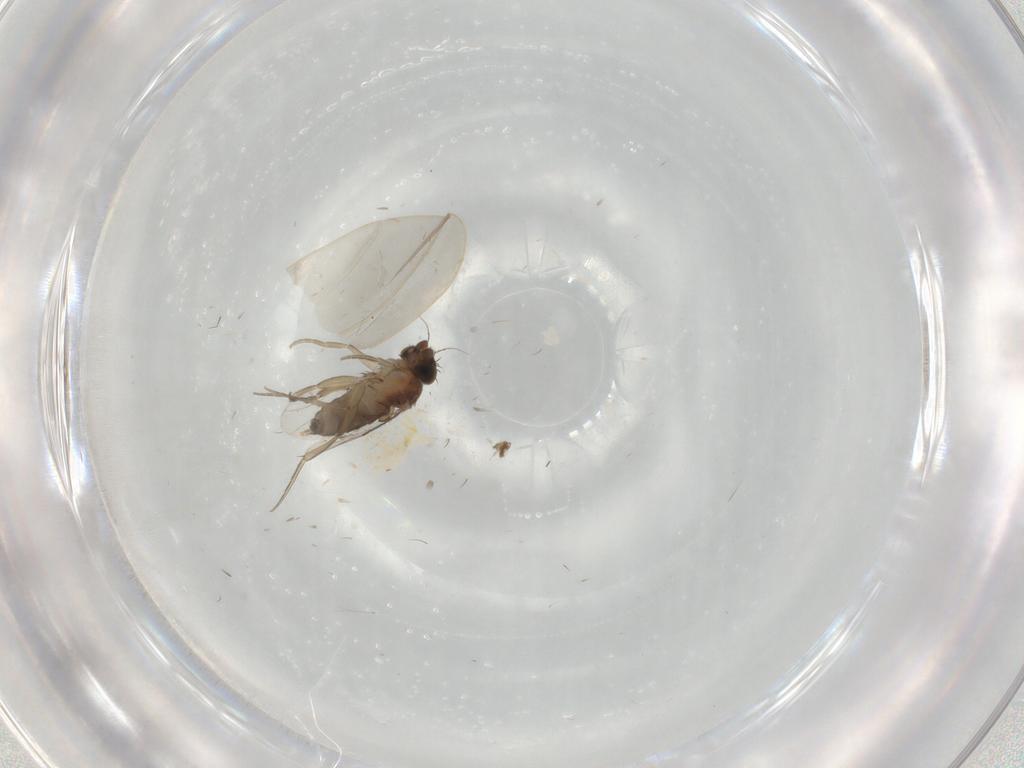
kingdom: Animalia
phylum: Arthropoda
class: Insecta
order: Diptera
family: Phoridae
